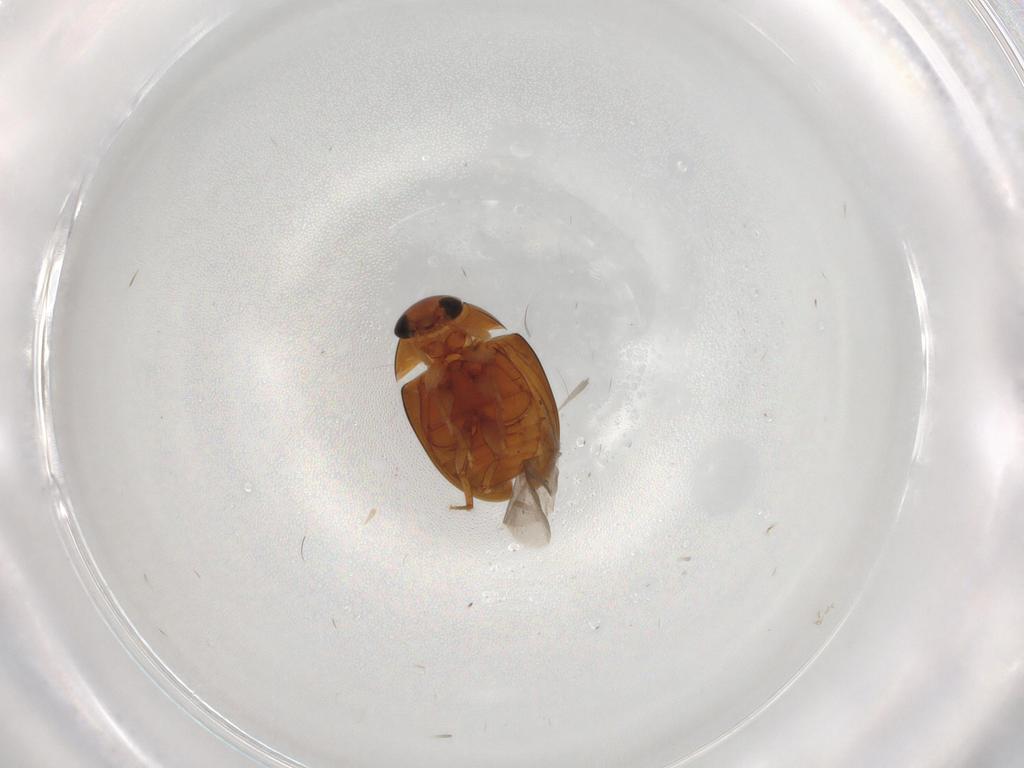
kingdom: Animalia
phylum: Arthropoda
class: Insecta
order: Coleoptera
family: Phalacridae
